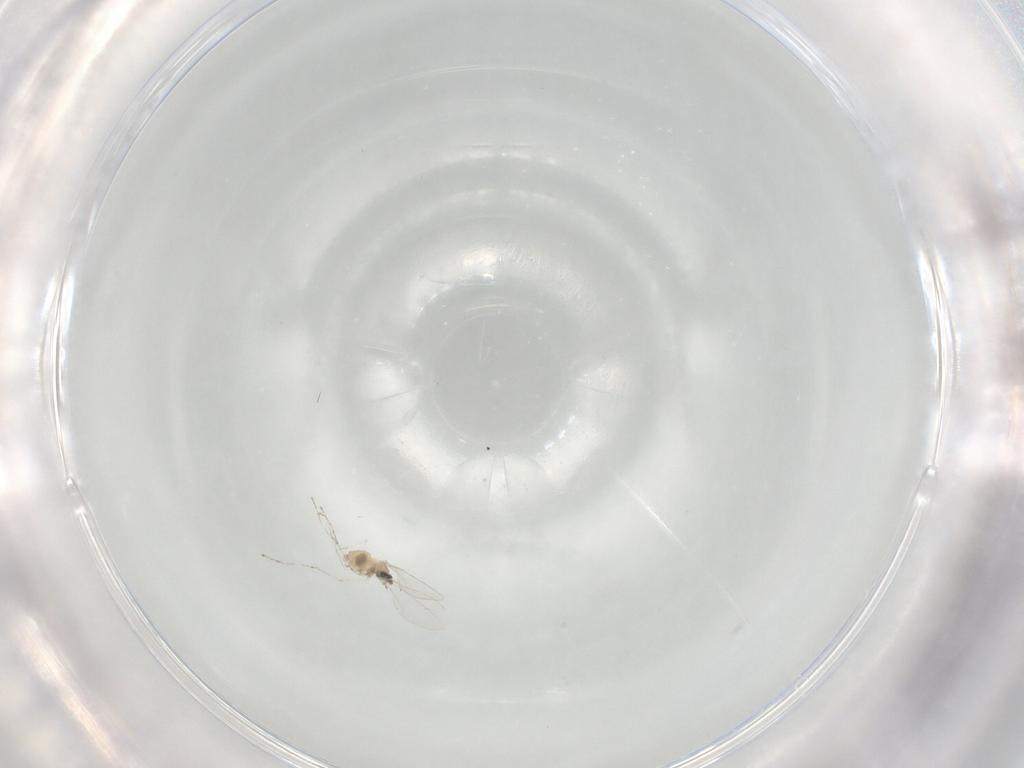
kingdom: Animalia
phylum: Arthropoda
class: Insecta
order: Diptera
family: Cecidomyiidae
